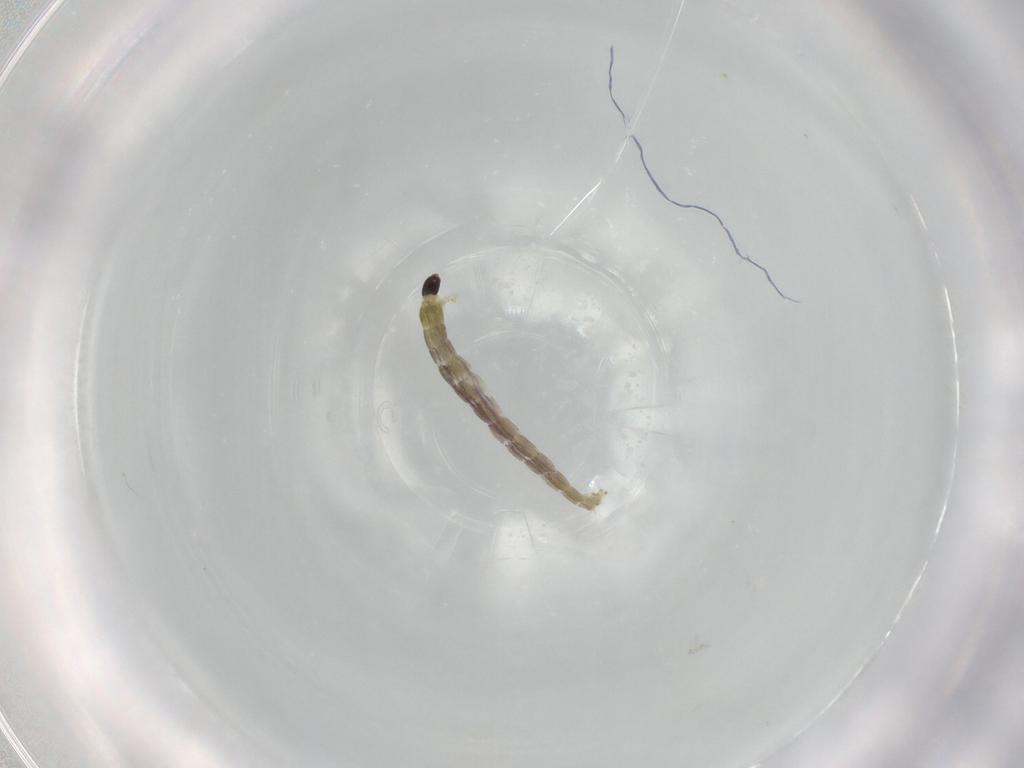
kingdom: Animalia
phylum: Arthropoda
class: Insecta
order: Diptera
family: Chironomidae
